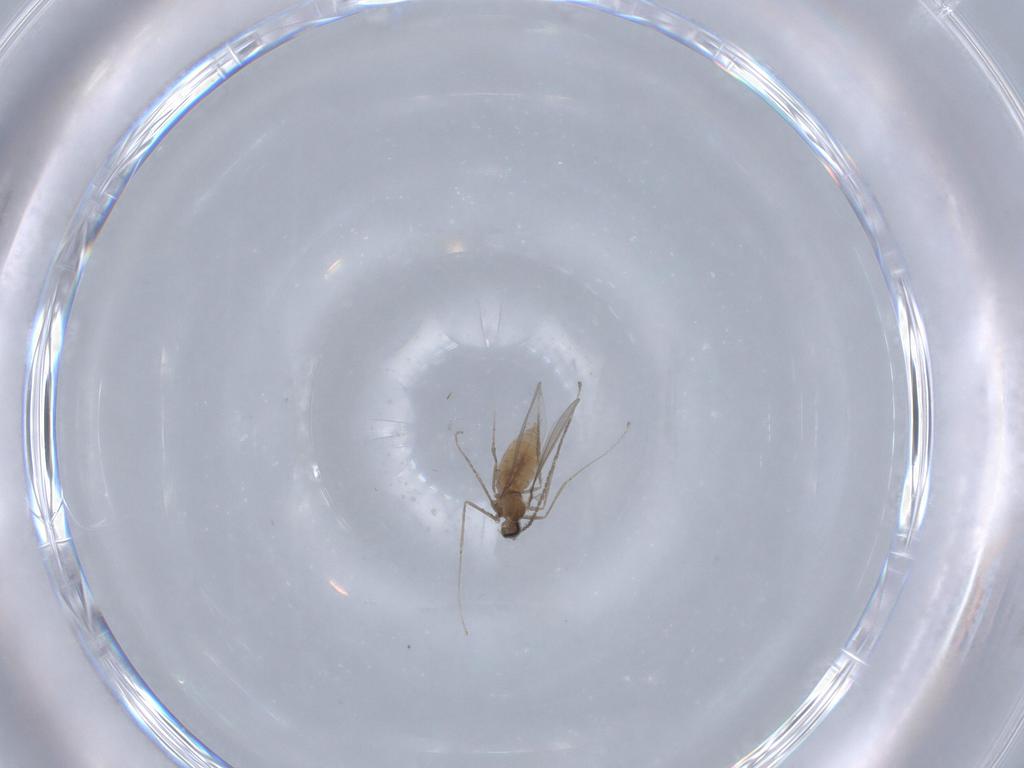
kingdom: Animalia
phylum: Arthropoda
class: Insecta
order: Diptera
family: Cecidomyiidae
